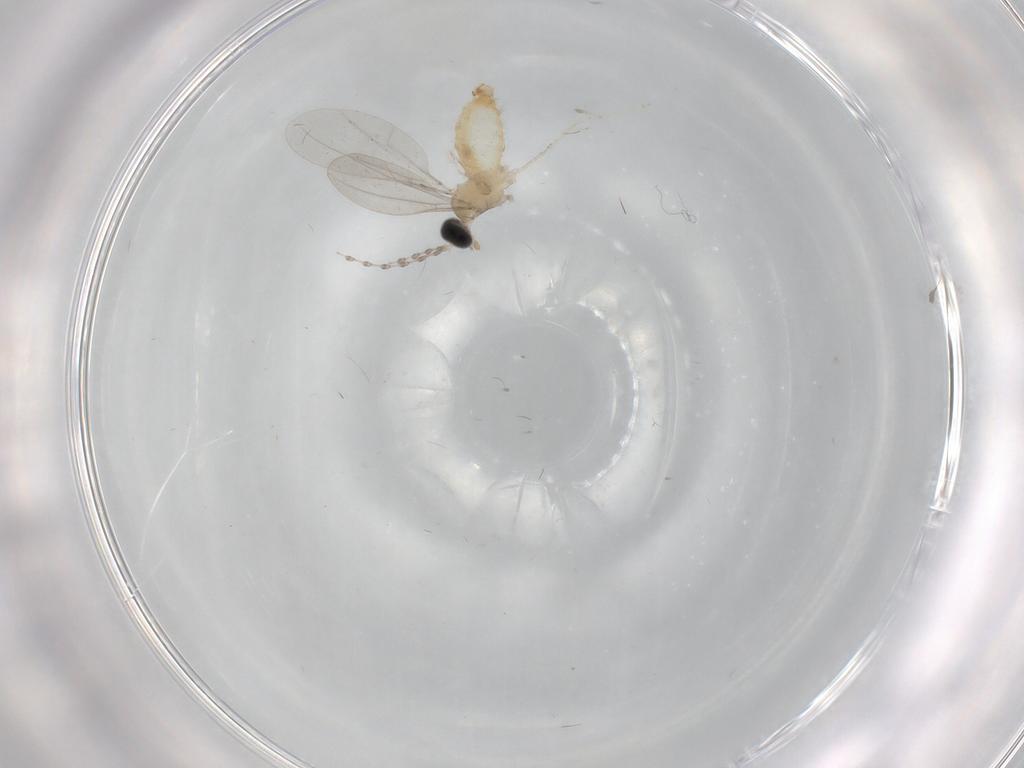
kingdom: Animalia
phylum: Arthropoda
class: Insecta
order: Diptera
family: Cecidomyiidae
